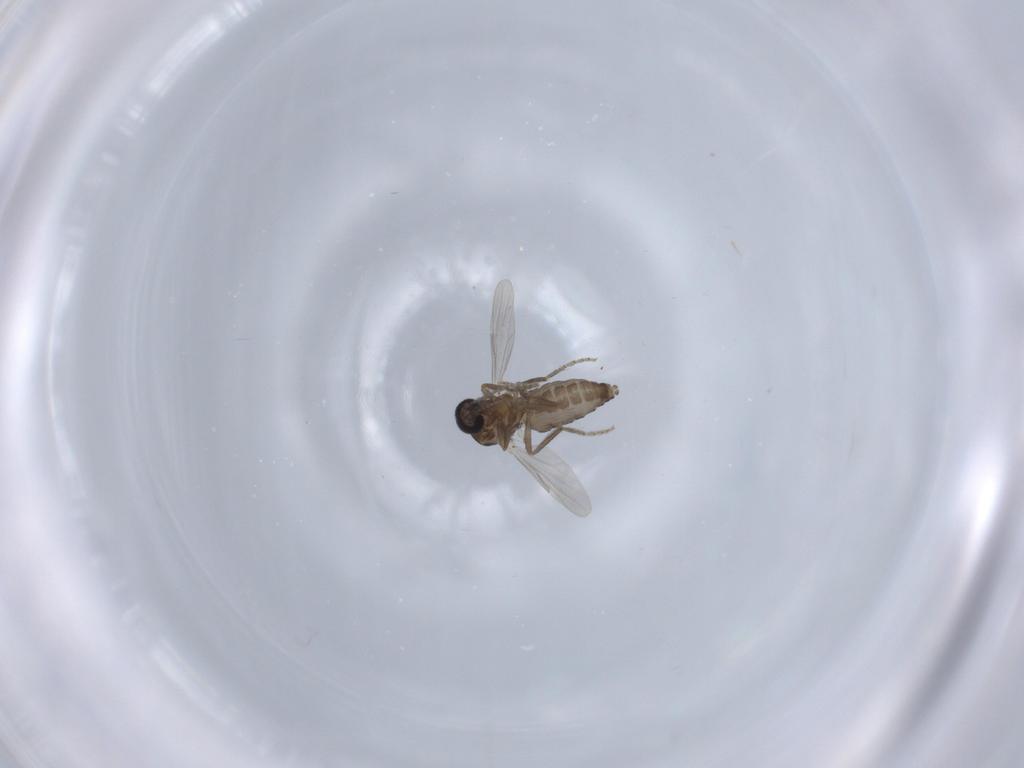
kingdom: Animalia
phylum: Arthropoda
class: Insecta
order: Diptera
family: Ceratopogonidae
